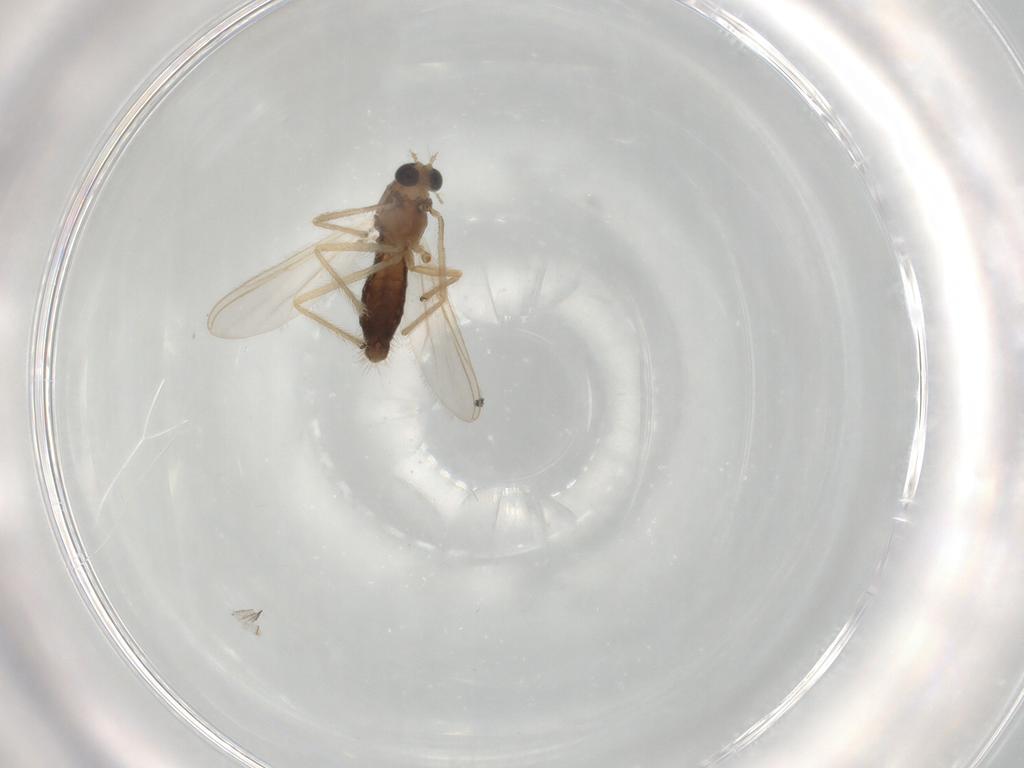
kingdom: Animalia
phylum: Arthropoda
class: Insecta
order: Diptera
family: Chironomidae
